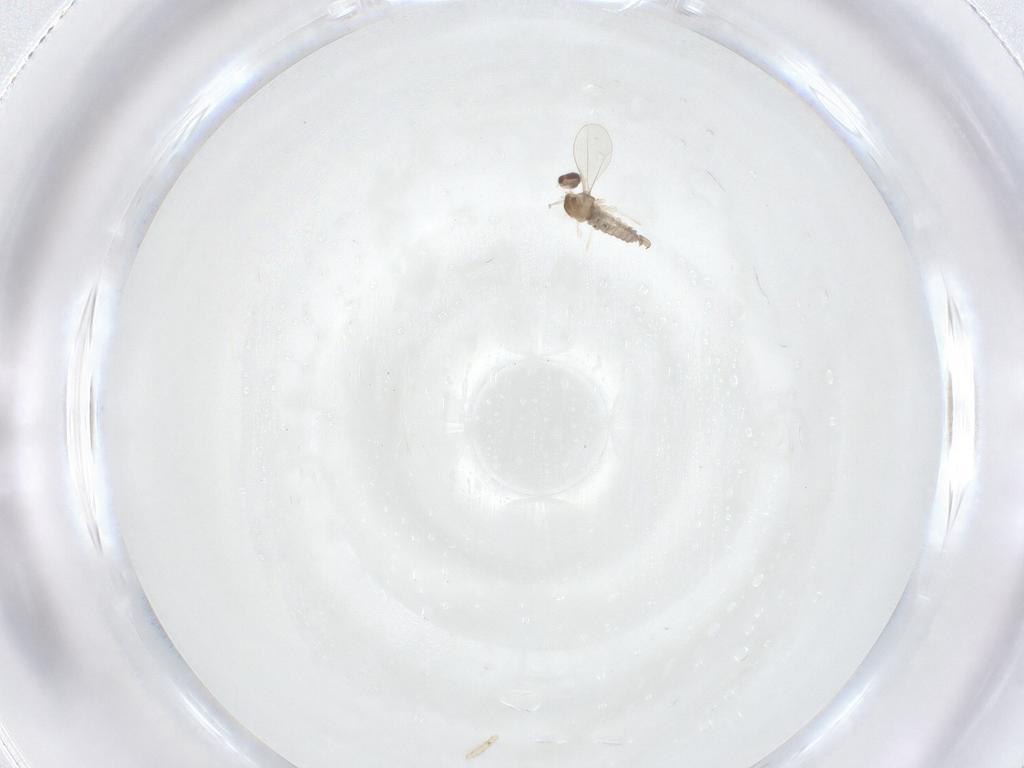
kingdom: Animalia
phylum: Arthropoda
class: Insecta
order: Diptera
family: Cecidomyiidae
